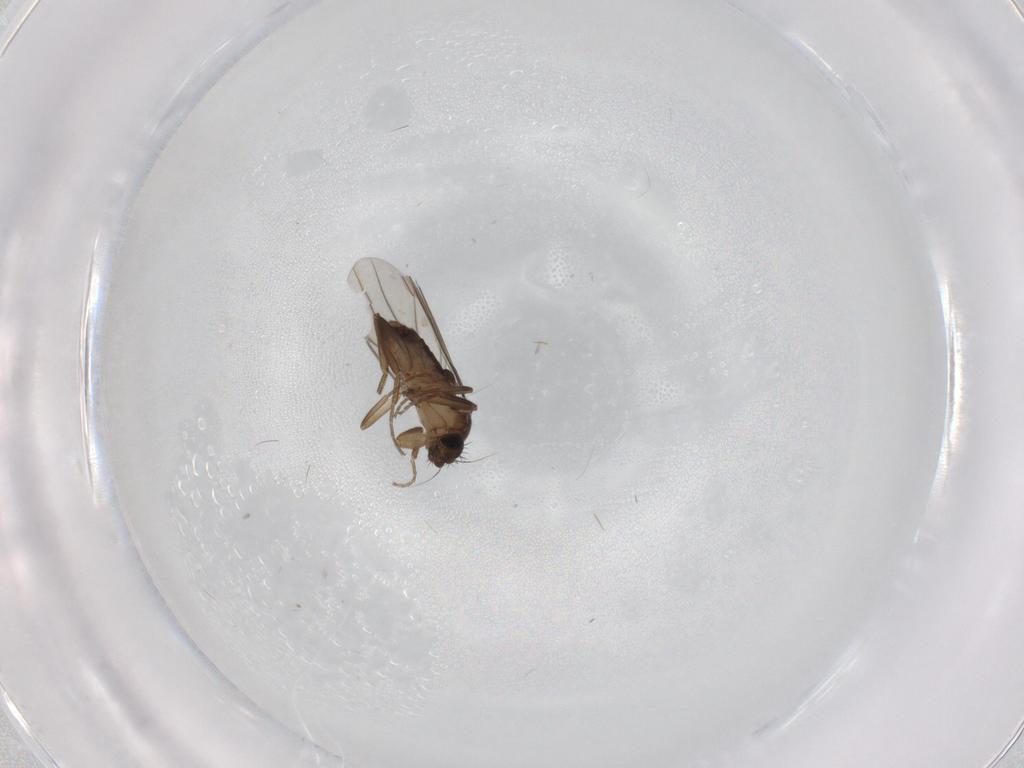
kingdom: Animalia
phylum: Arthropoda
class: Insecta
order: Diptera
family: Phoridae
